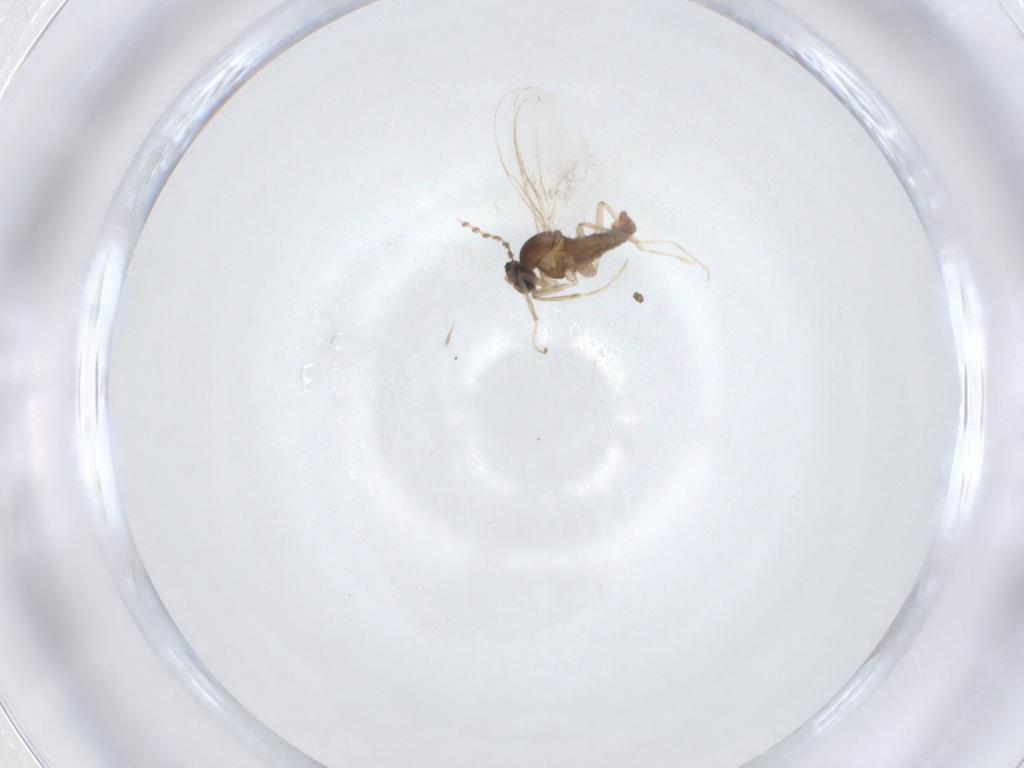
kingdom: Animalia
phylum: Arthropoda
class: Insecta
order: Diptera
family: Cecidomyiidae
